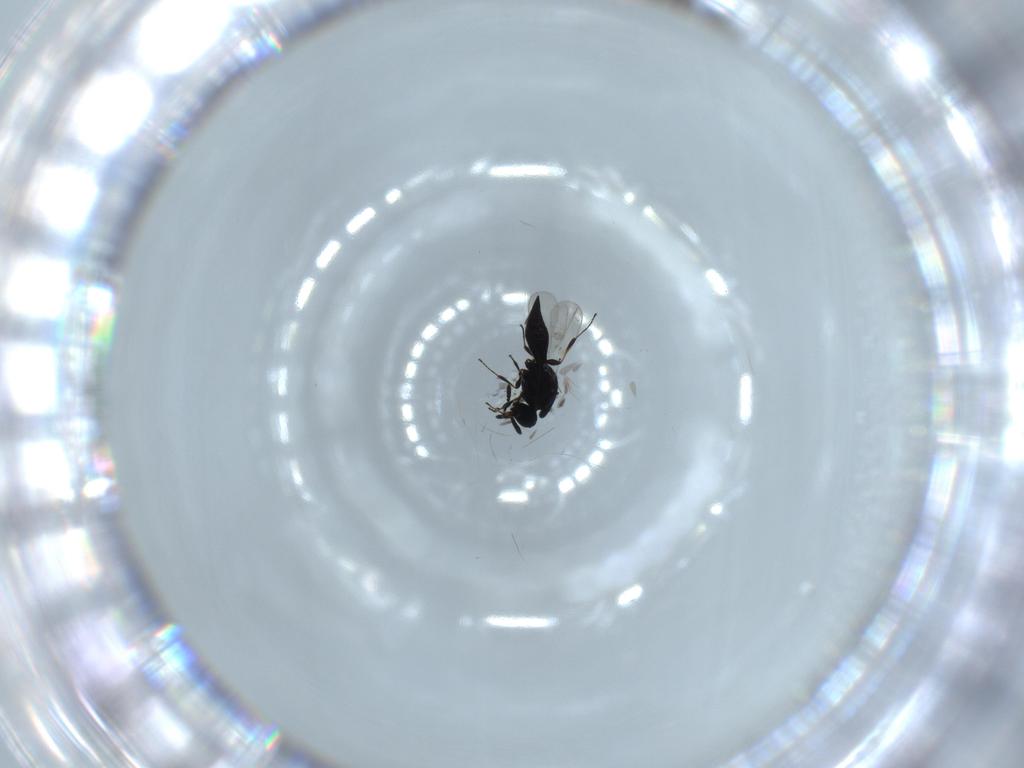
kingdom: Animalia
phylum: Arthropoda
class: Insecta
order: Hymenoptera
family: Platygastridae
